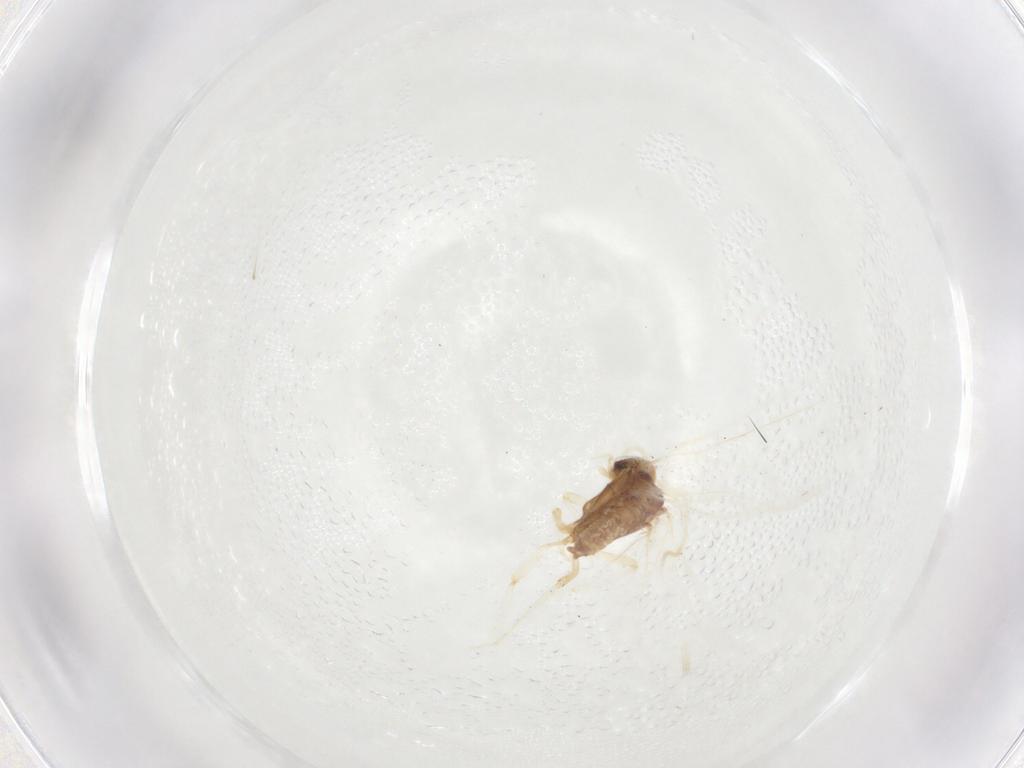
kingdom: Animalia
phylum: Arthropoda
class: Insecta
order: Diptera
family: Phoridae
